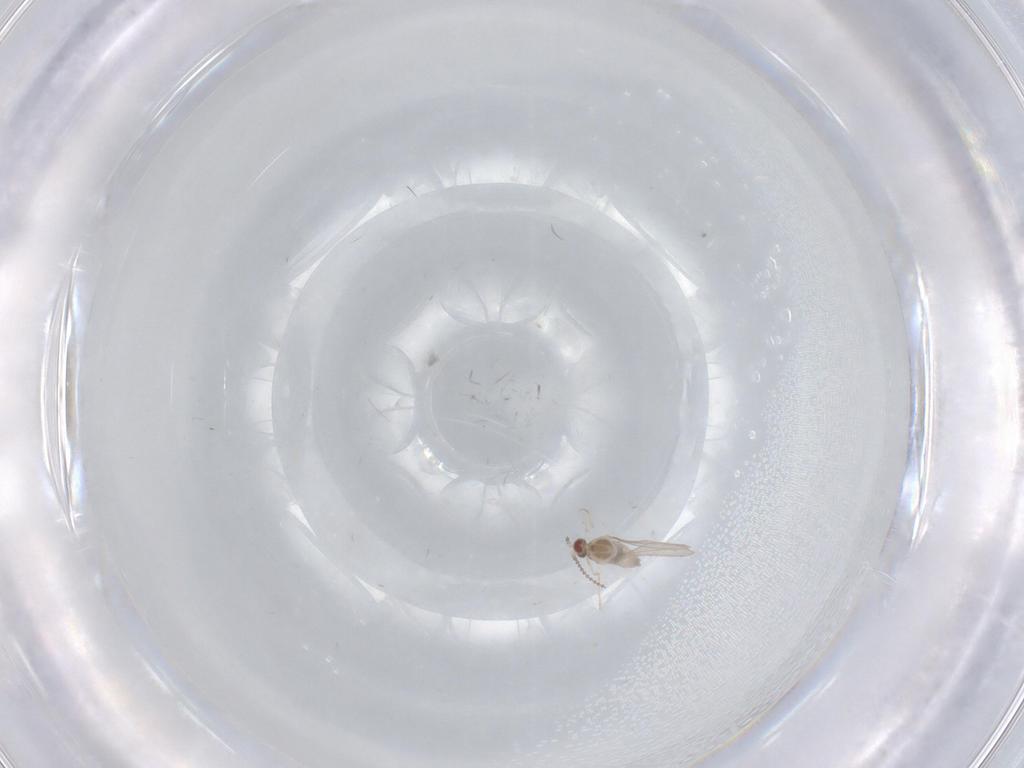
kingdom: Animalia
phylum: Arthropoda
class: Insecta
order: Diptera
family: Cecidomyiidae
